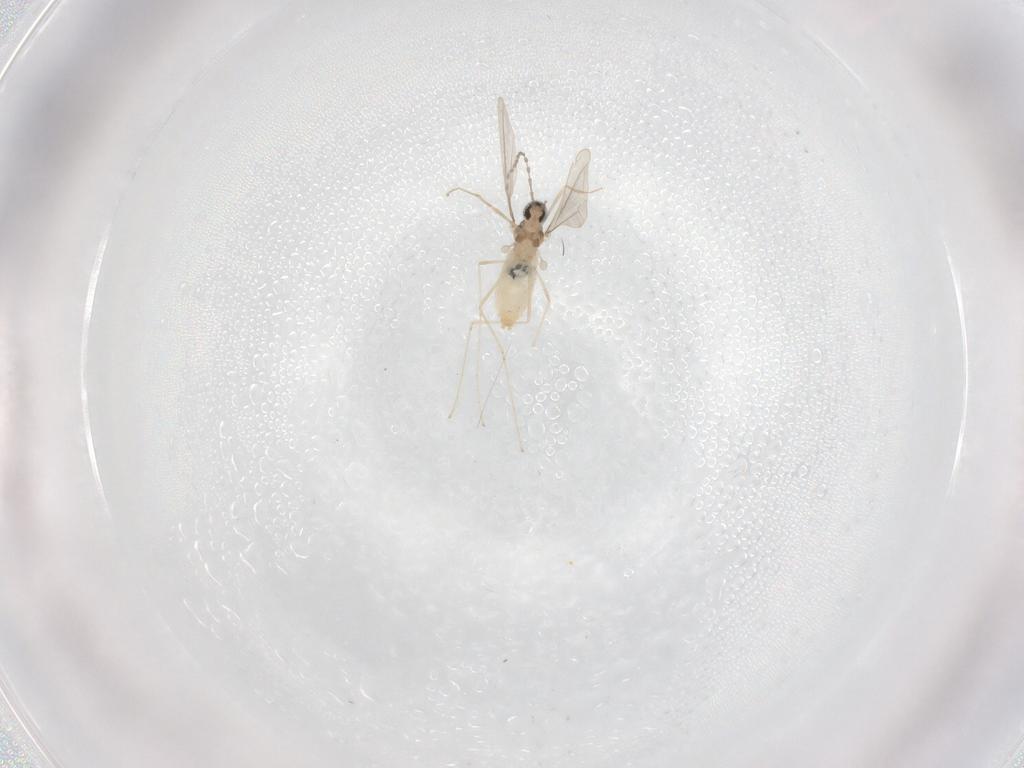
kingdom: Animalia
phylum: Arthropoda
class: Insecta
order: Diptera
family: Cecidomyiidae
